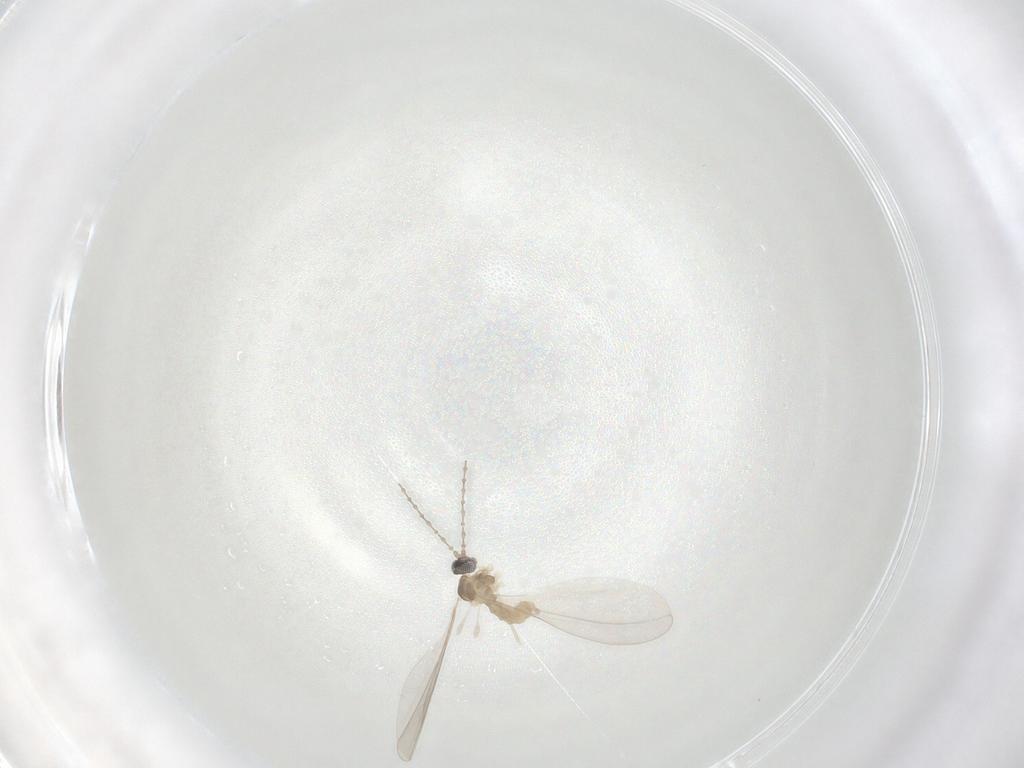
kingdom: Animalia
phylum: Arthropoda
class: Insecta
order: Diptera
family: Cecidomyiidae
